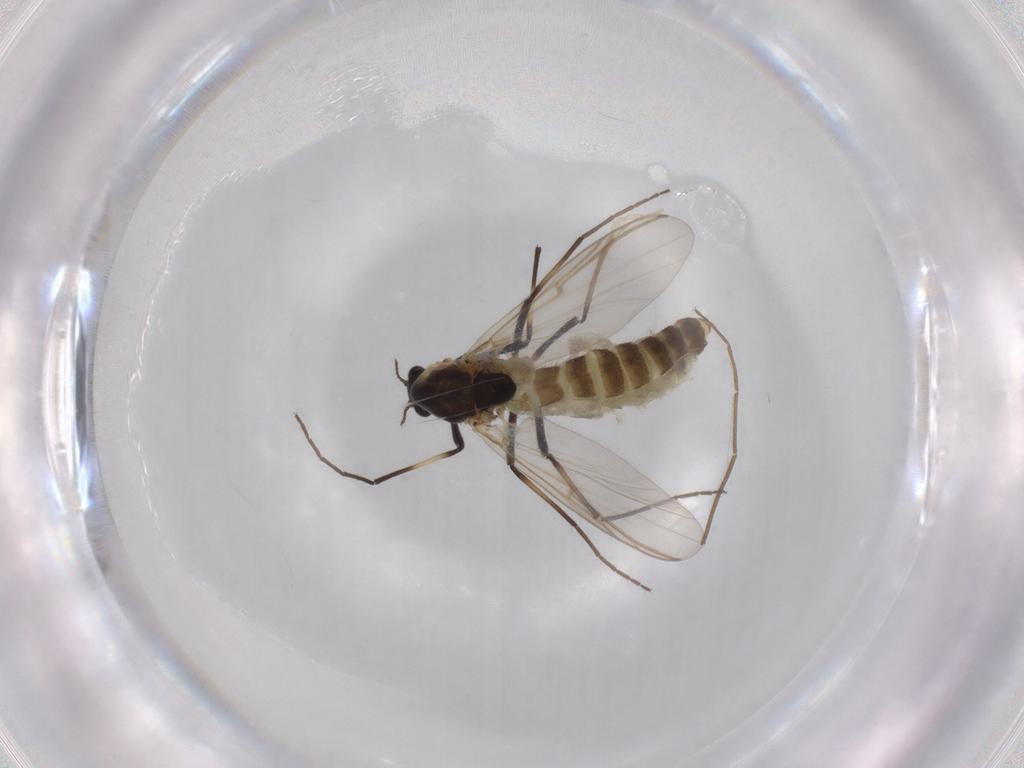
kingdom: Animalia
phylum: Arthropoda
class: Insecta
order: Diptera
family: Chironomidae
